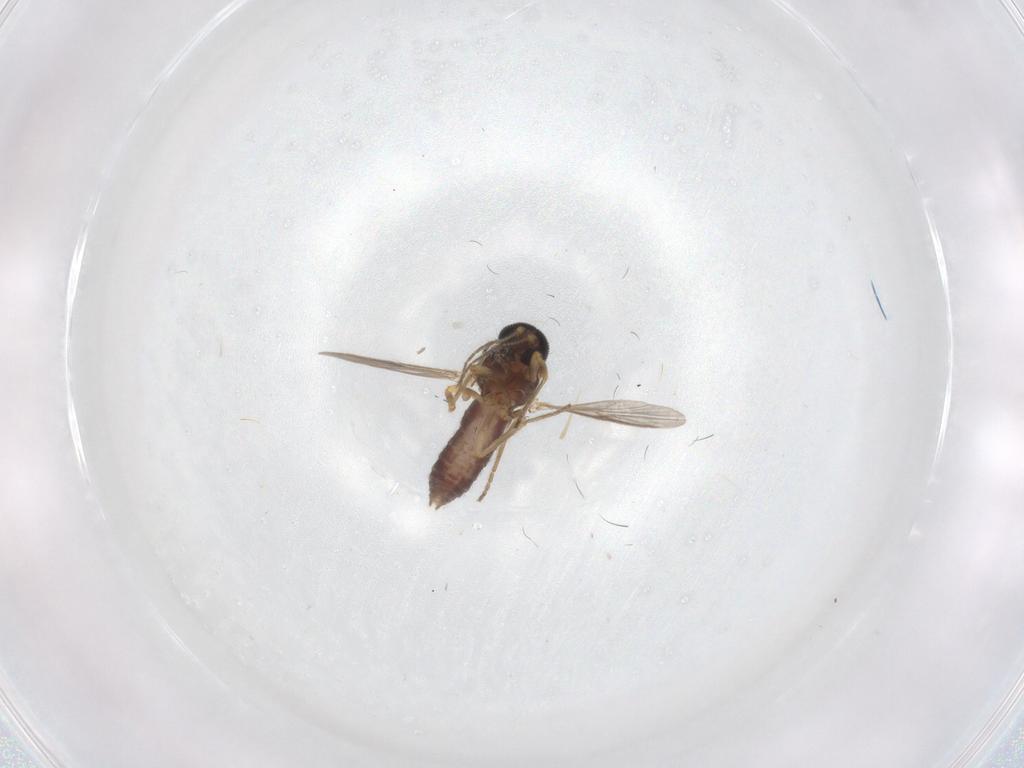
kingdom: Animalia
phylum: Arthropoda
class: Insecta
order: Diptera
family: Ceratopogonidae
